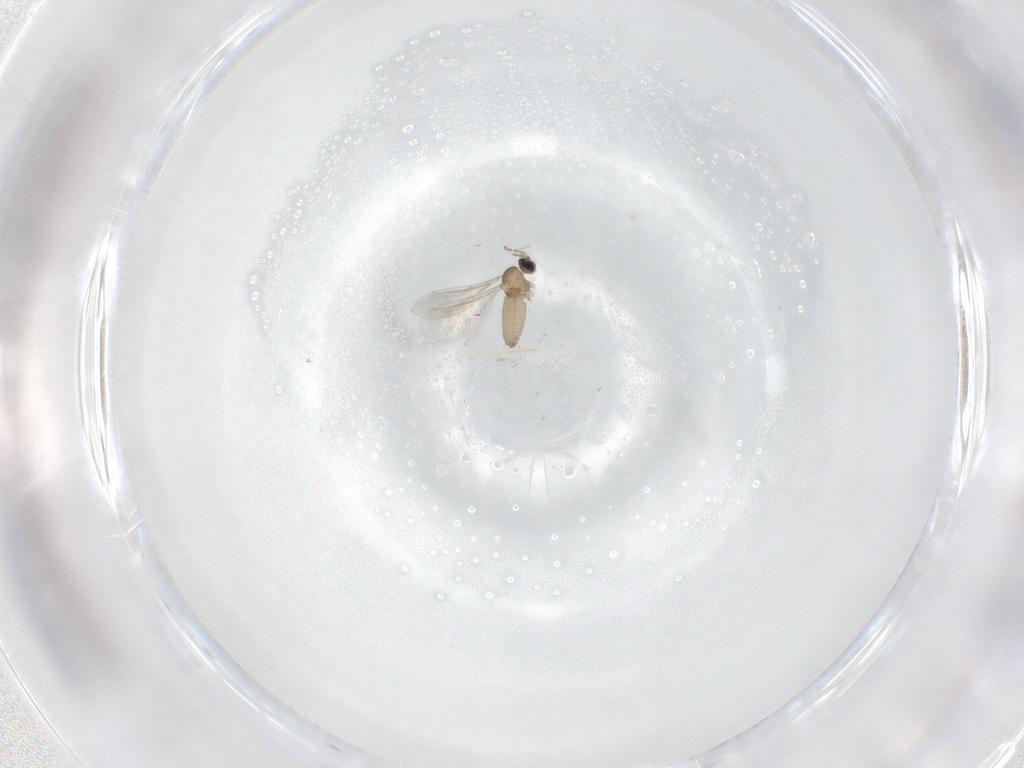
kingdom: Animalia
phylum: Arthropoda
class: Insecta
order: Diptera
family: Cecidomyiidae
